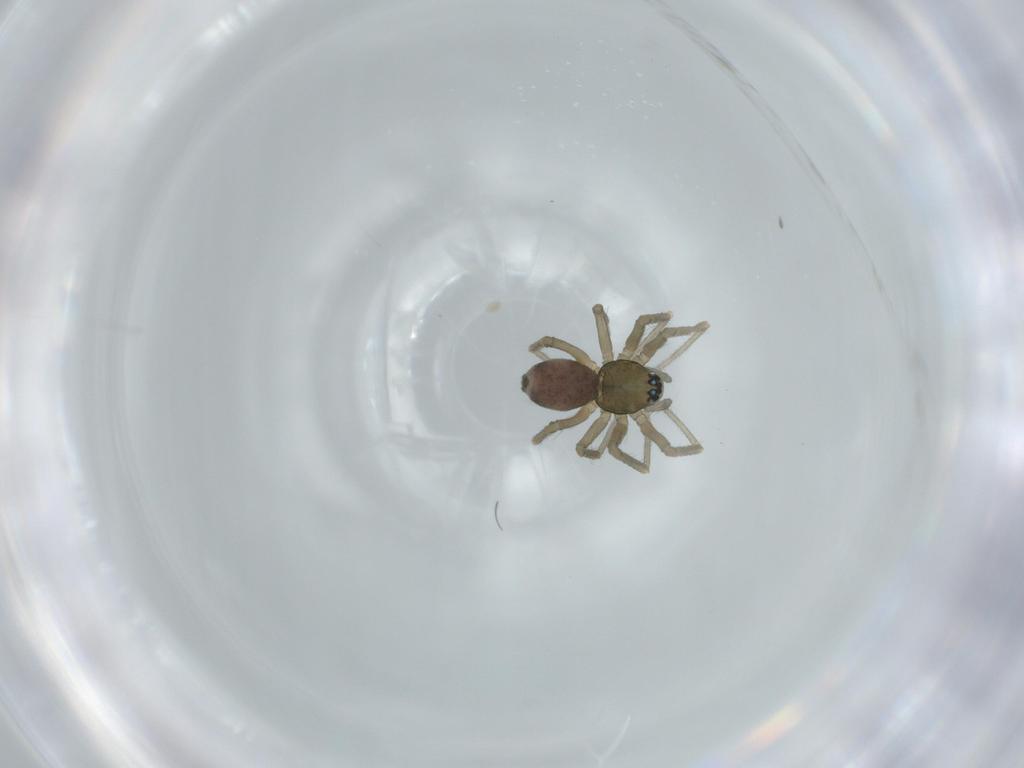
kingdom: Animalia
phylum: Arthropoda
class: Arachnida
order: Araneae
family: Linyphiidae
